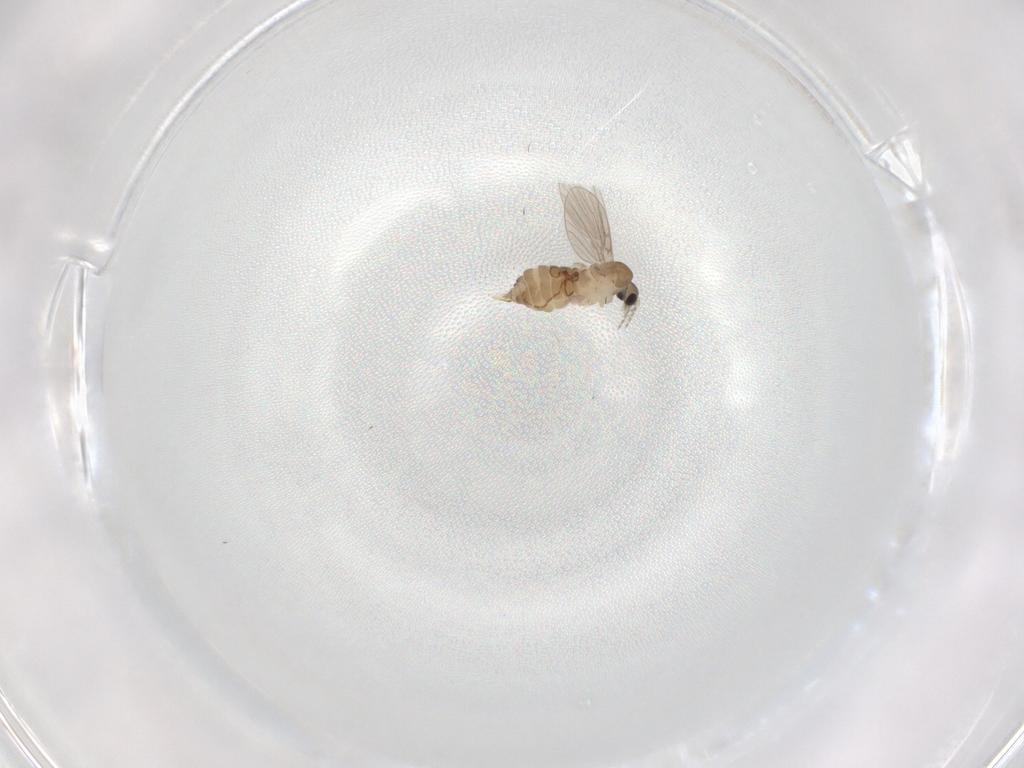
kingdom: Animalia
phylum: Arthropoda
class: Insecta
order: Diptera
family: Psychodidae
